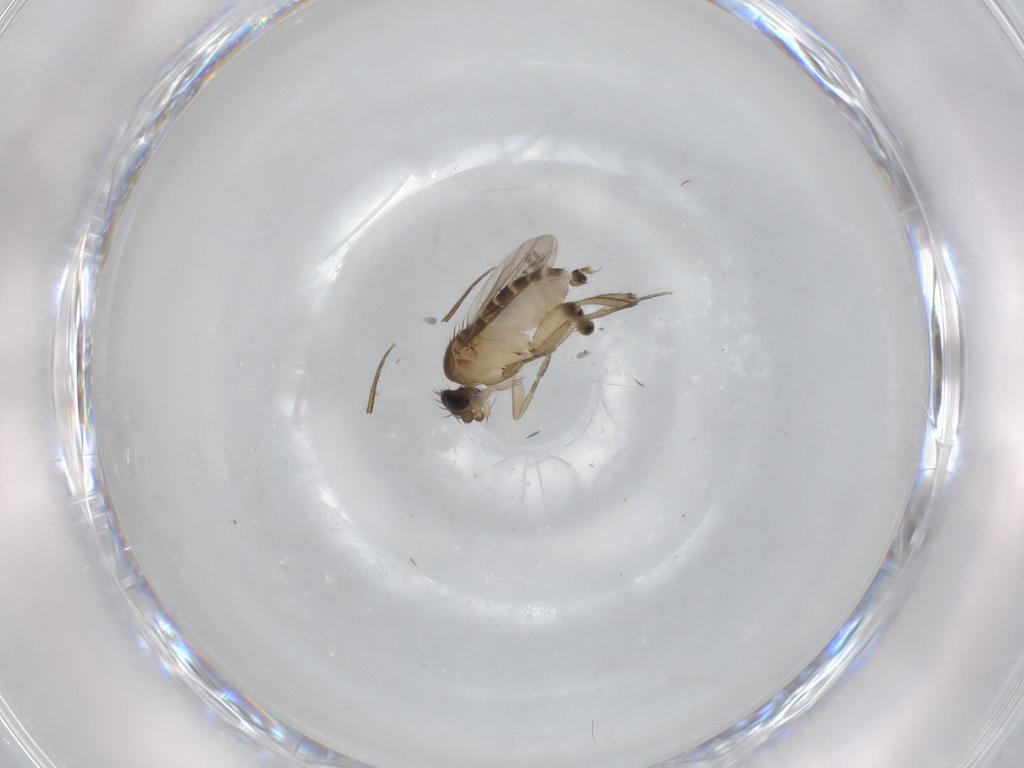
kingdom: Animalia
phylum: Arthropoda
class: Insecta
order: Diptera
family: Phoridae
